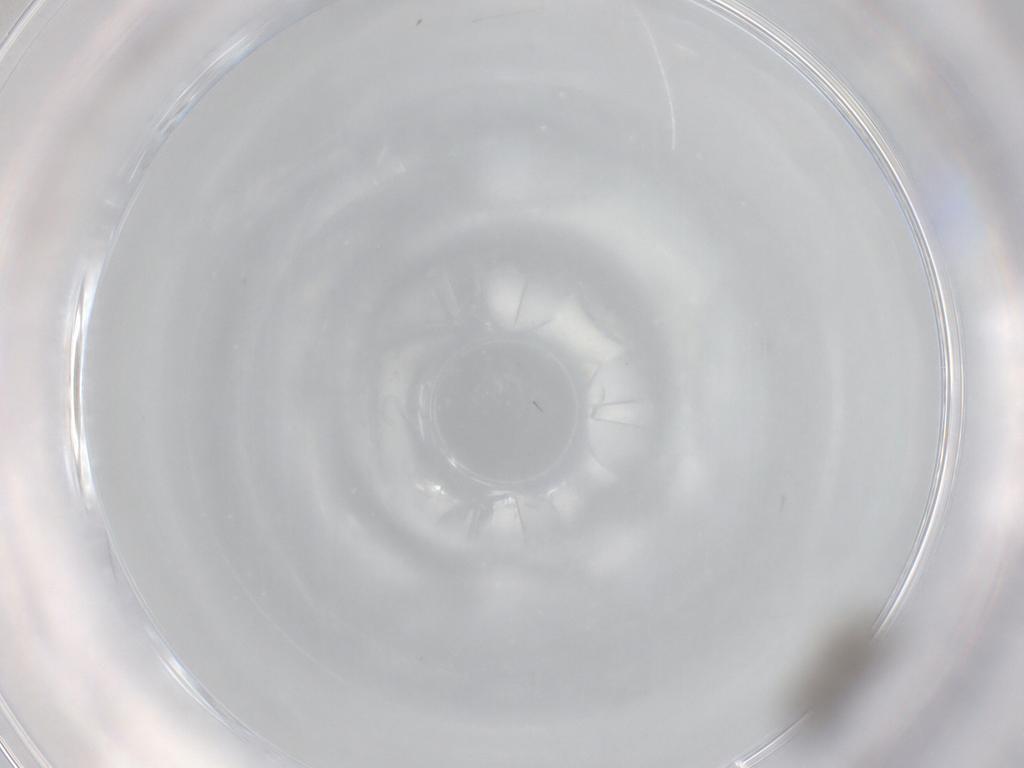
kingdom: Animalia
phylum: Arthropoda
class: Insecta
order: Diptera
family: Cecidomyiidae
